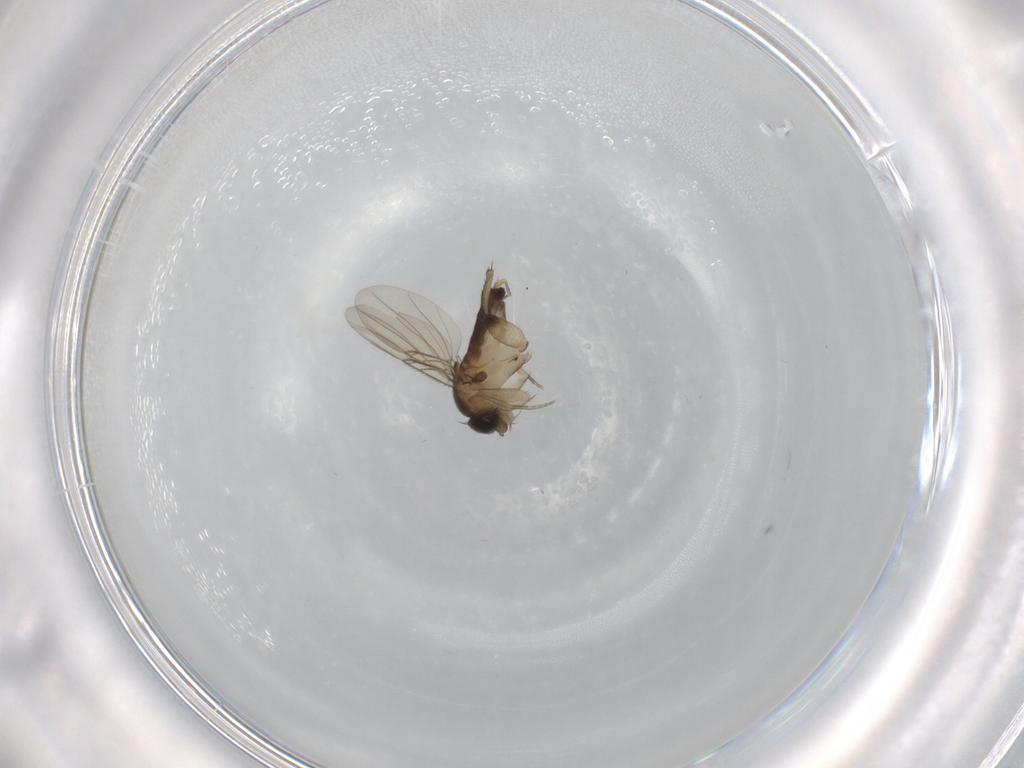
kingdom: Animalia
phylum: Arthropoda
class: Insecta
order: Diptera
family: Phoridae
